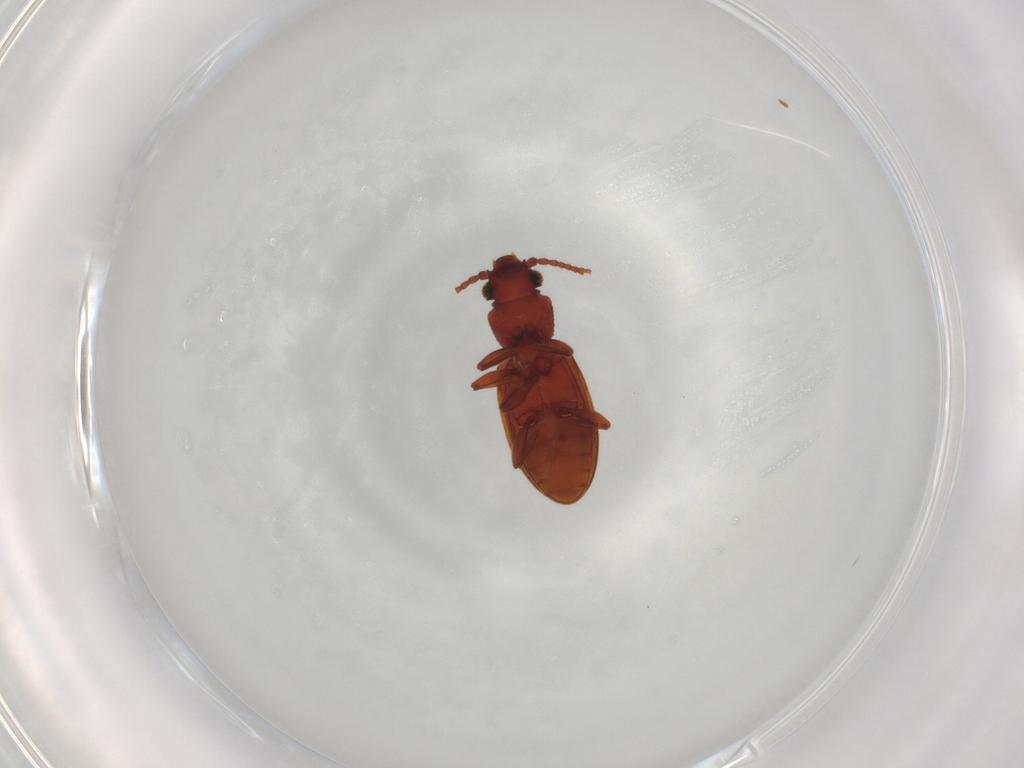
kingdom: Animalia
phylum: Arthropoda
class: Insecta
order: Coleoptera
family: Silvanidae
